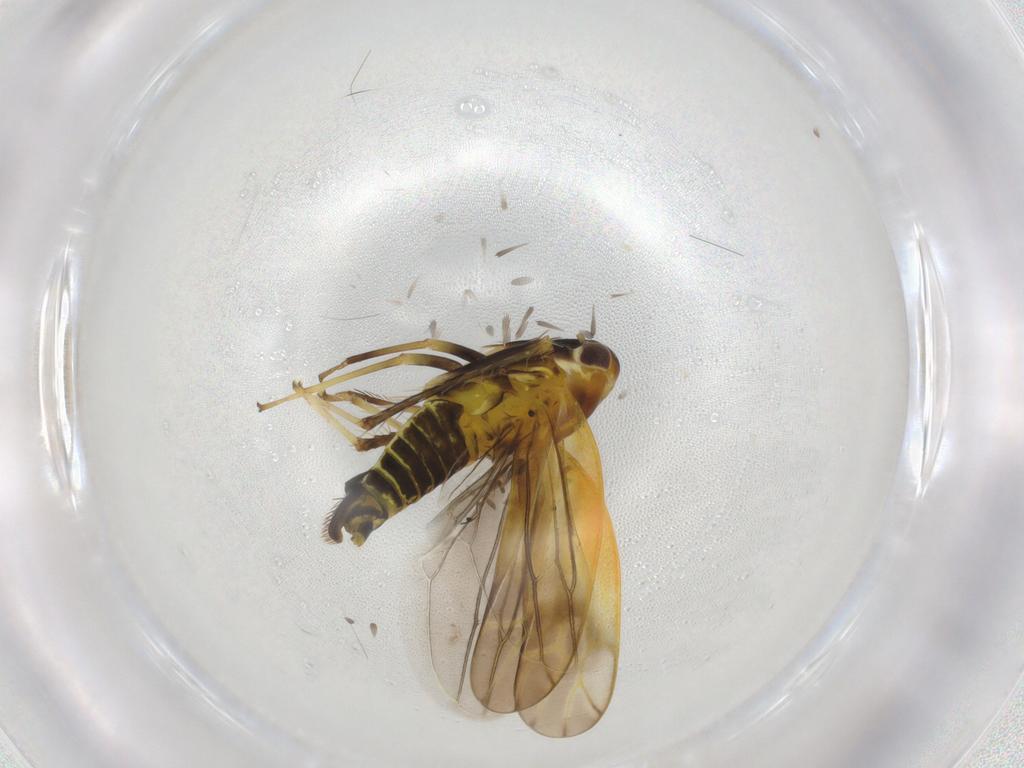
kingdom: Animalia
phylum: Arthropoda
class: Insecta
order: Hemiptera
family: Cicadellidae
